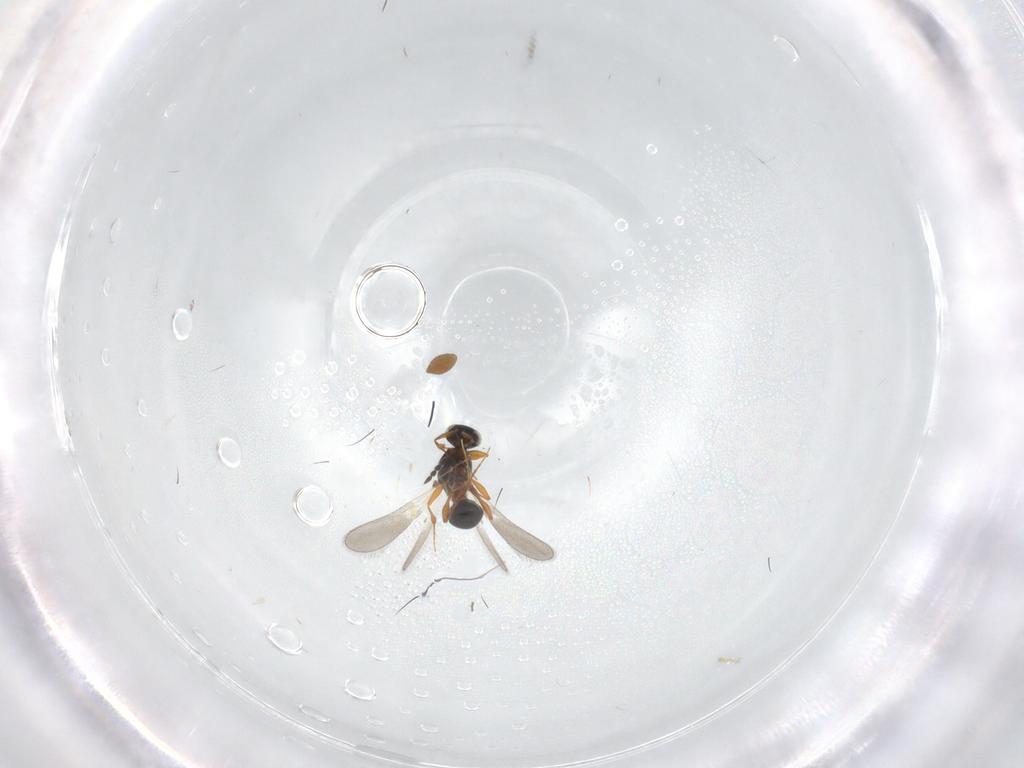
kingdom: Animalia
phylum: Arthropoda
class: Insecta
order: Hymenoptera
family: Platygastridae
